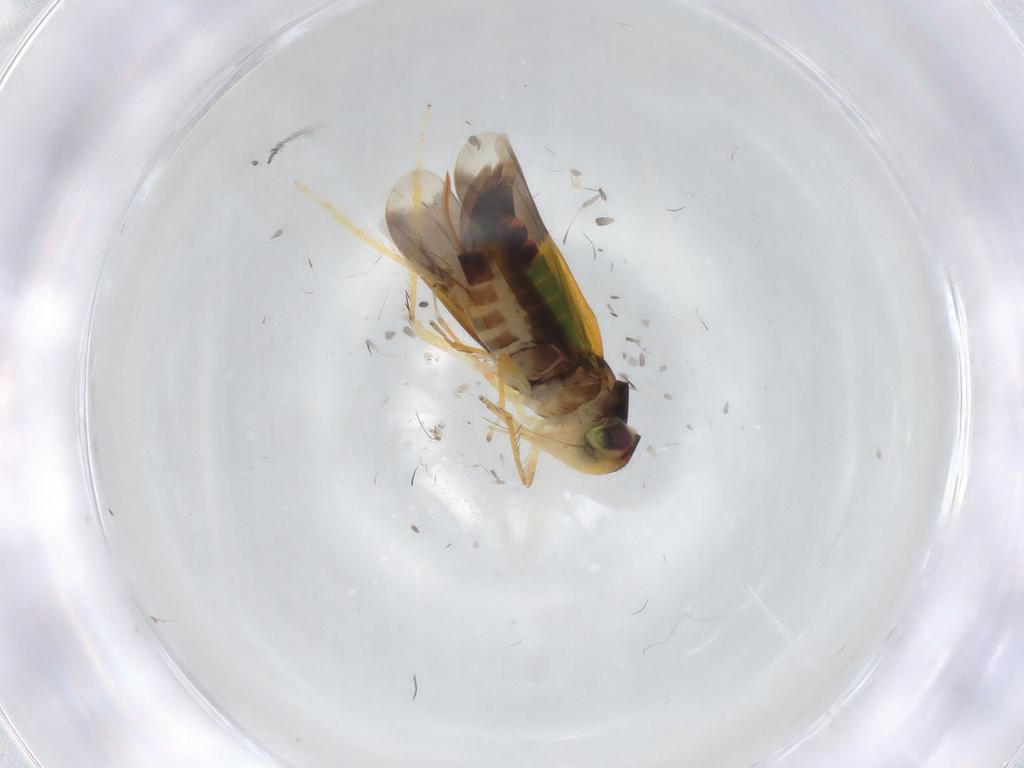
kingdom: Animalia
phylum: Arthropoda
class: Insecta
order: Hemiptera
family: Cicadellidae
